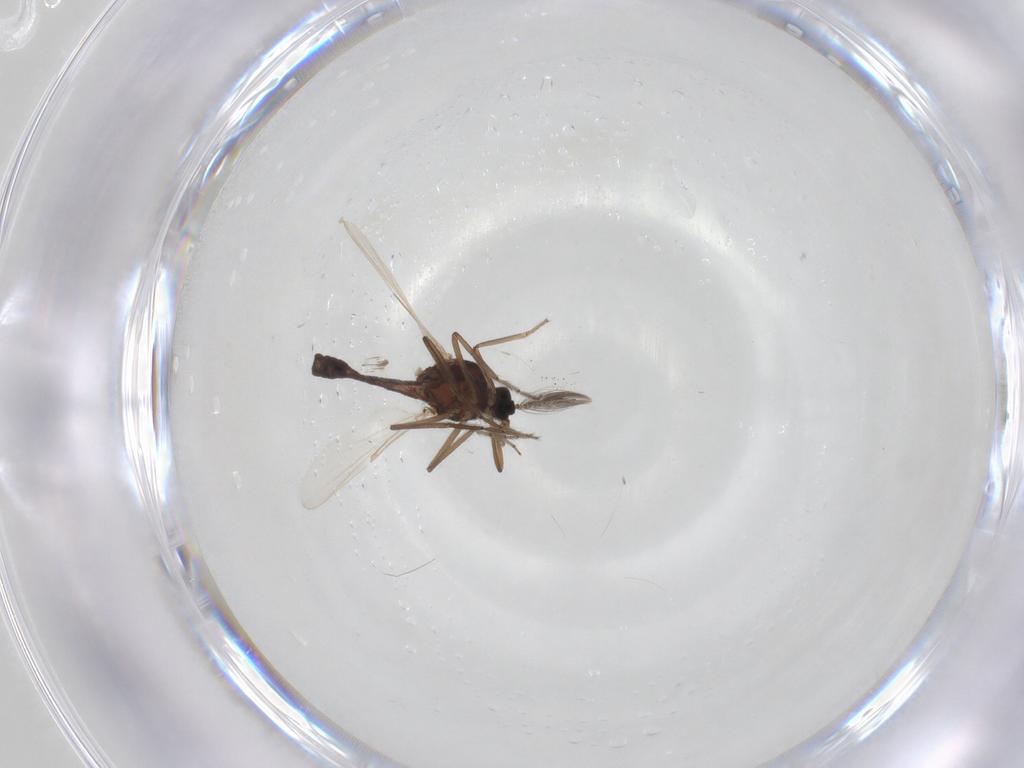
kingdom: Animalia
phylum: Arthropoda
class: Insecta
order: Diptera
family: Ceratopogonidae
